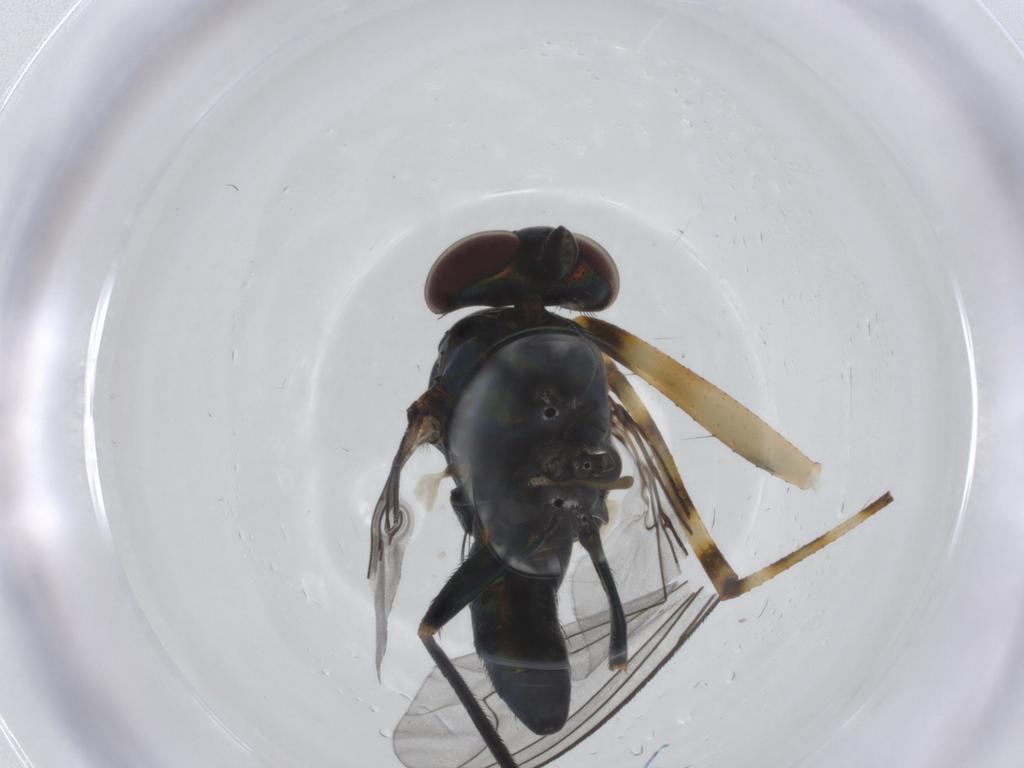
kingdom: Animalia
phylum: Arthropoda
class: Insecta
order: Diptera
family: Dolichopodidae
